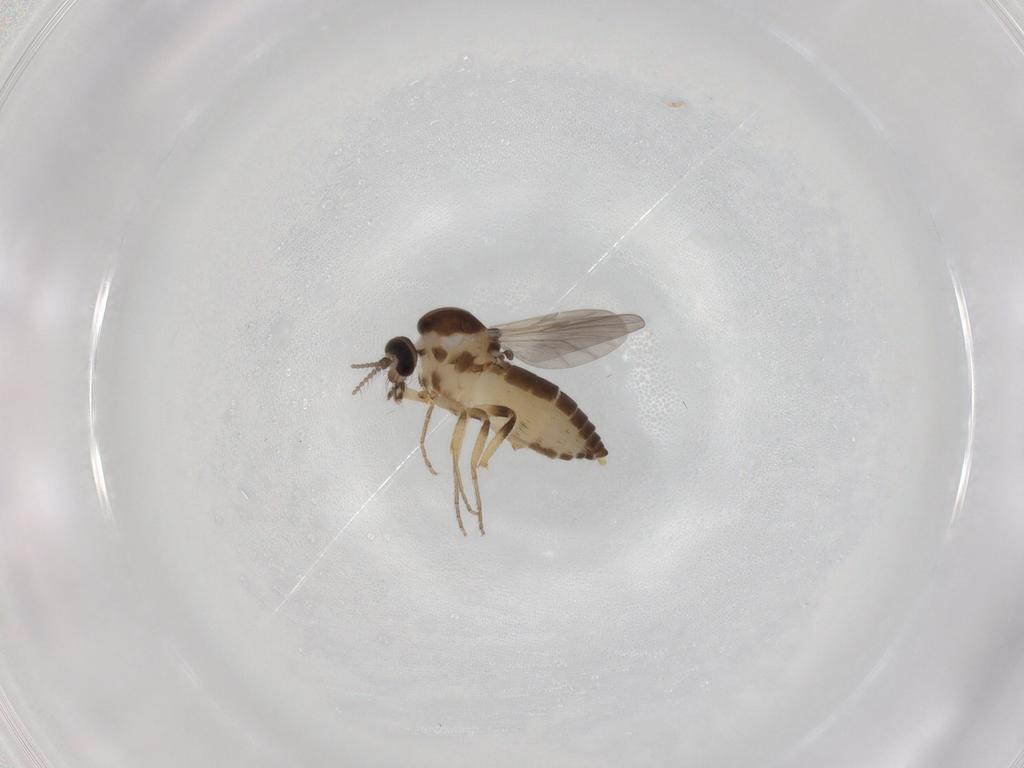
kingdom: Animalia
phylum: Arthropoda
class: Insecta
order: Diptera
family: Ceratopogonidae
